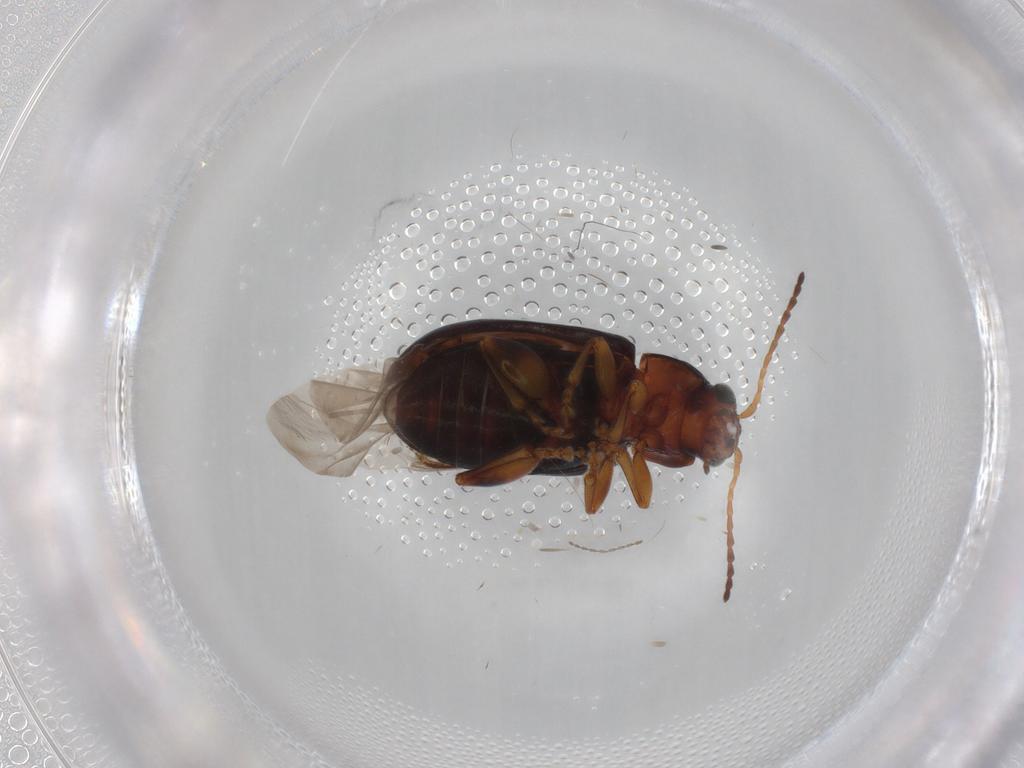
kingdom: Animalia
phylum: Arthropoda
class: Insecta
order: Coleoptera
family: Chrysomelidae
